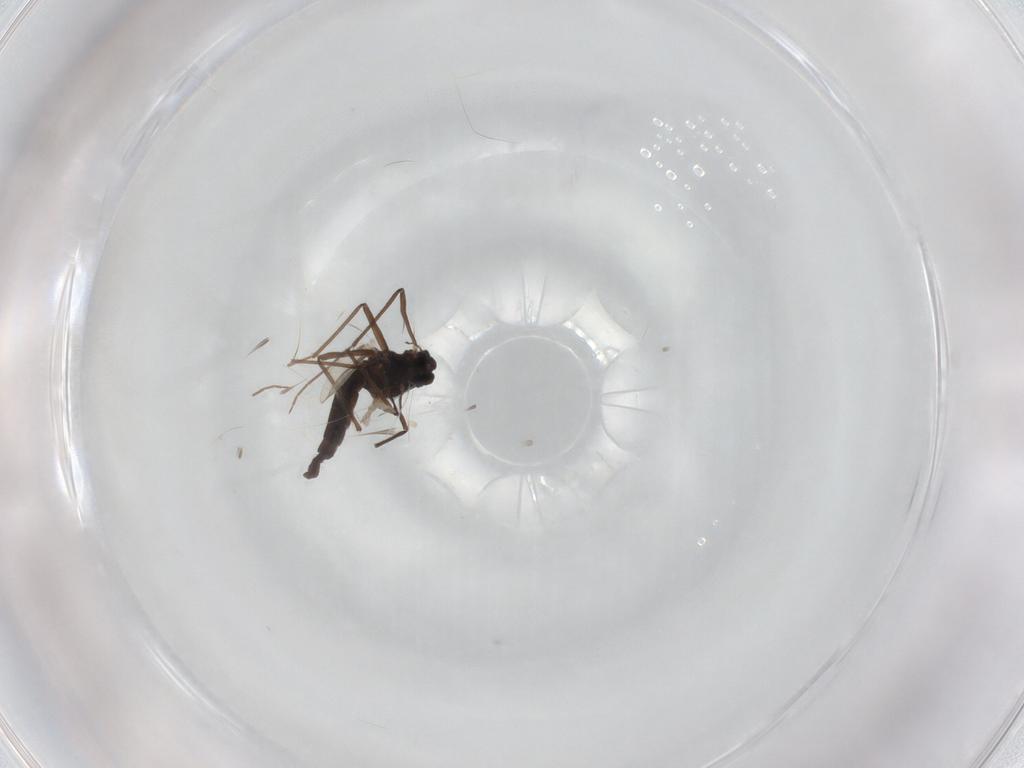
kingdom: Animalia
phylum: Arthropoda
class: Insecta
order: Diptera
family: Chironomidae
